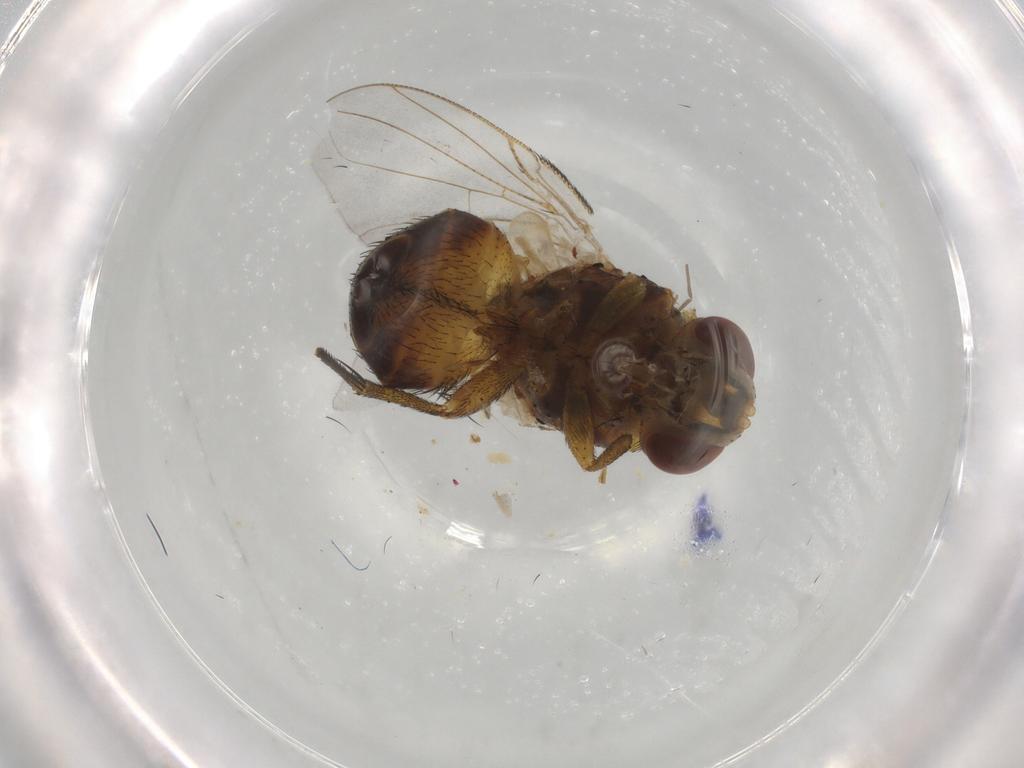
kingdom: Animalia
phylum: Arthropoda
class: Insecta
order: Diptera
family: Tachinidae
